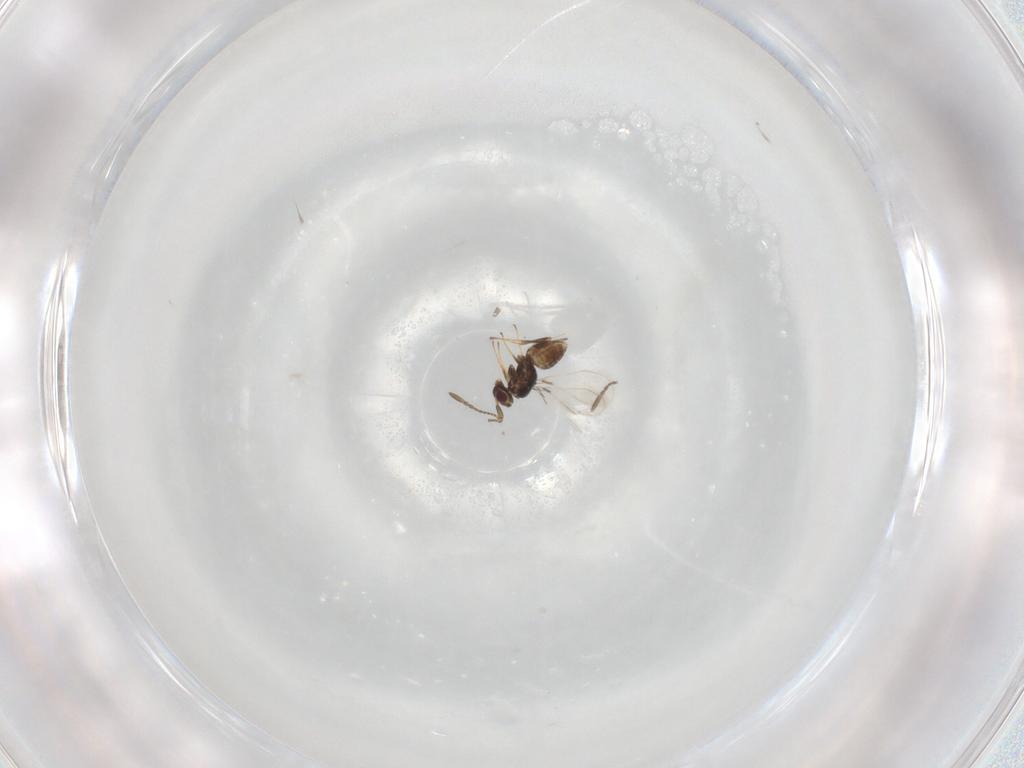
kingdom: Animalia
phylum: Arthropoda
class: Insecta
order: Hymenoptera
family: Mymaridae
